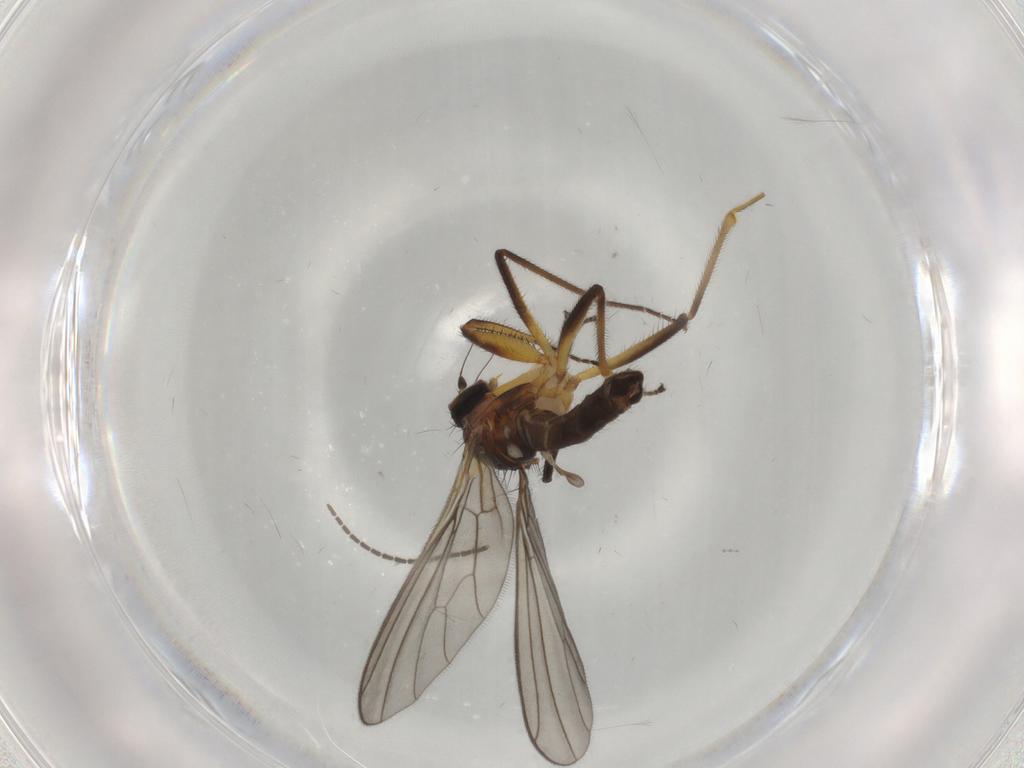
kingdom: Animalia
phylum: Arthropoda
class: Insecta
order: Diptera
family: Empididae
